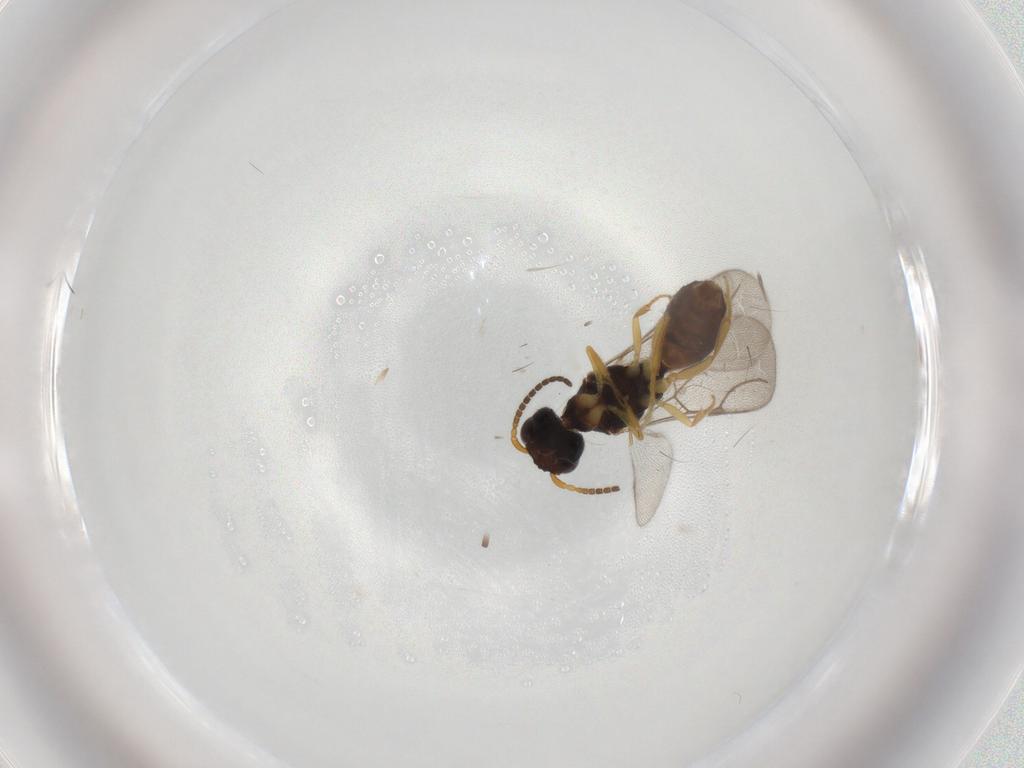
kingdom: Animalia
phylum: Arthropoda
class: Insecta
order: Hymenoptera
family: Bethylidae
